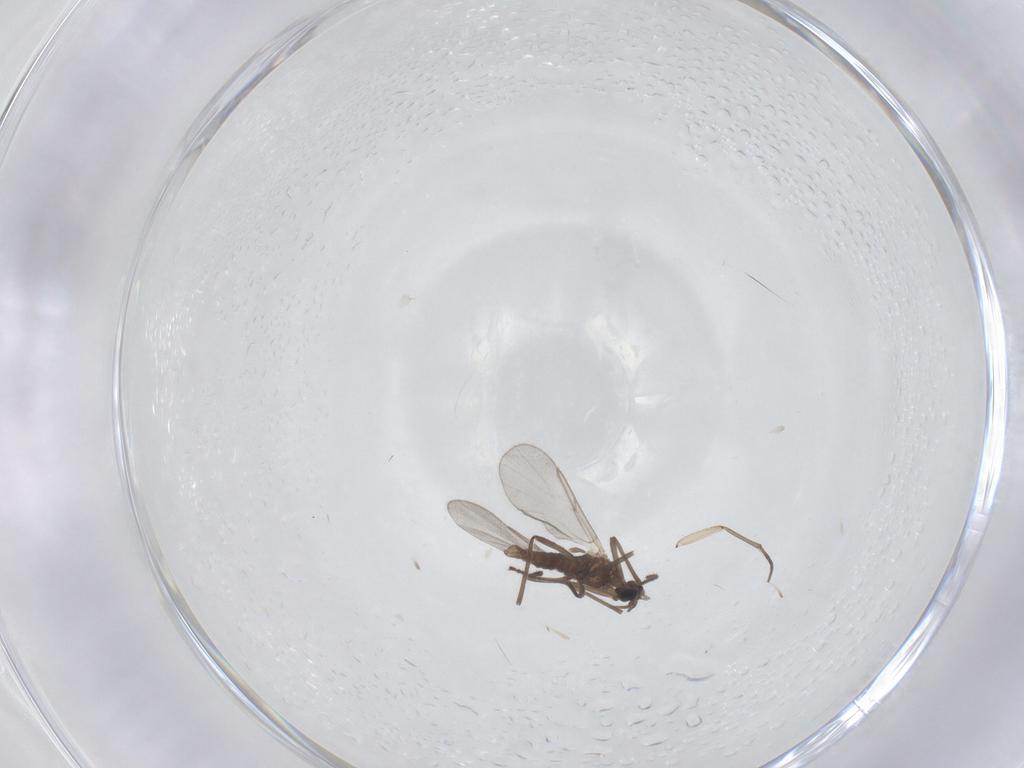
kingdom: Animalia
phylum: Arthropoda
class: Insecta
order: Diptera
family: Cecidomyiidae
